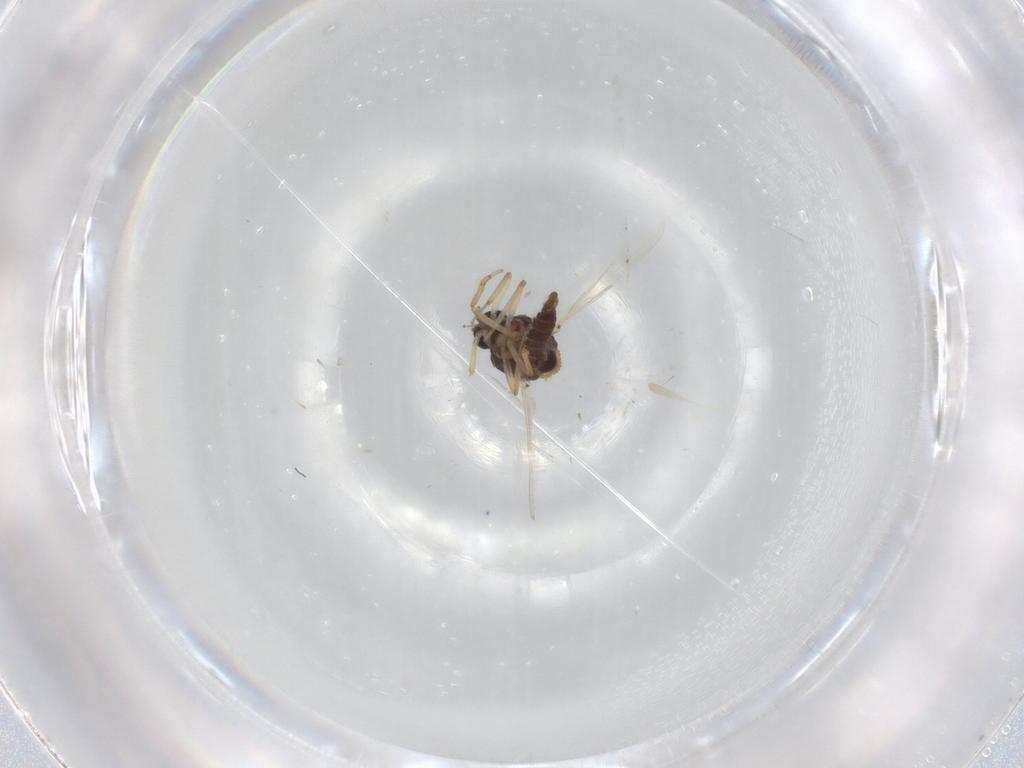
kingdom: Animalia
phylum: Arthropoda
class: Insecta
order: Diptera
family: Ceratopogonidae
